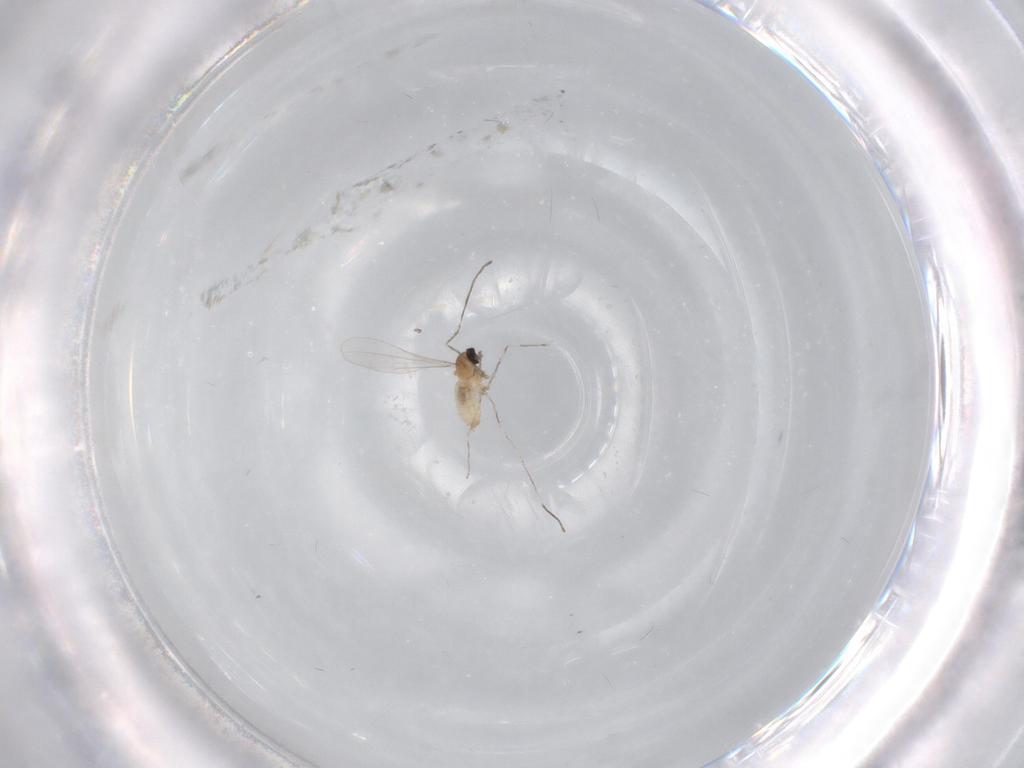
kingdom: Animalia
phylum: Arthropoda
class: Insecta
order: Diptera
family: Cecidomyiidae
